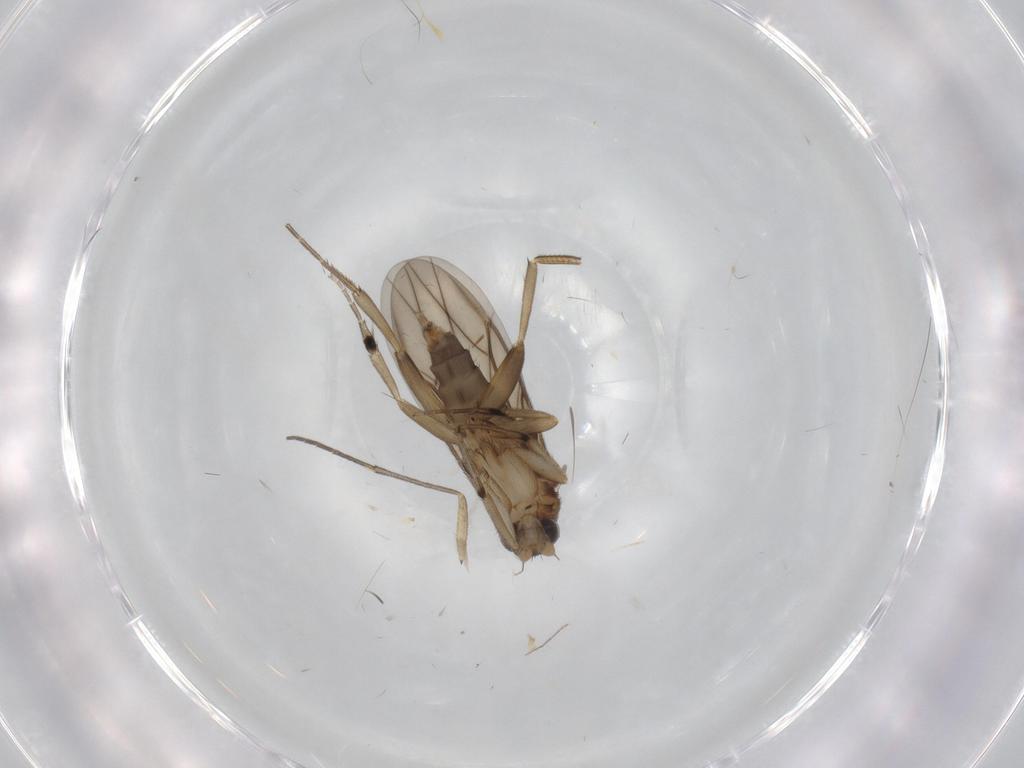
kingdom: Animalia
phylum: Arthropoda
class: Insecta
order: Diptera
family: Phoridae
